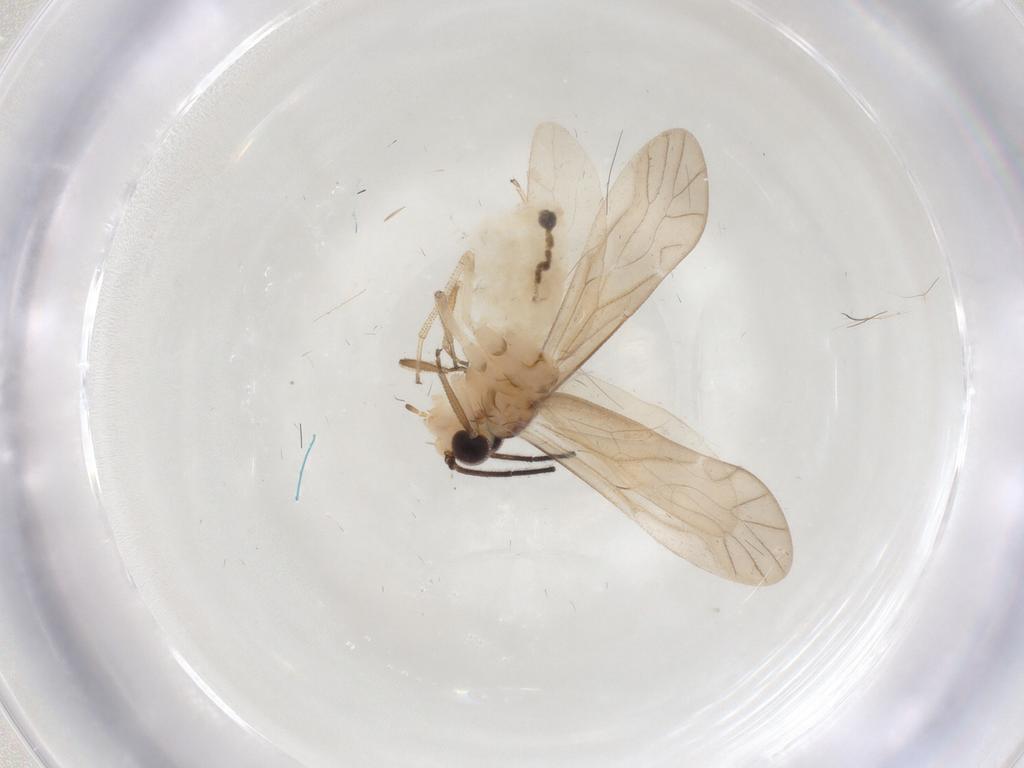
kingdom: Animalia
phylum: Arthropoda
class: Insecta
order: Psocodea
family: Caeciliusidae
